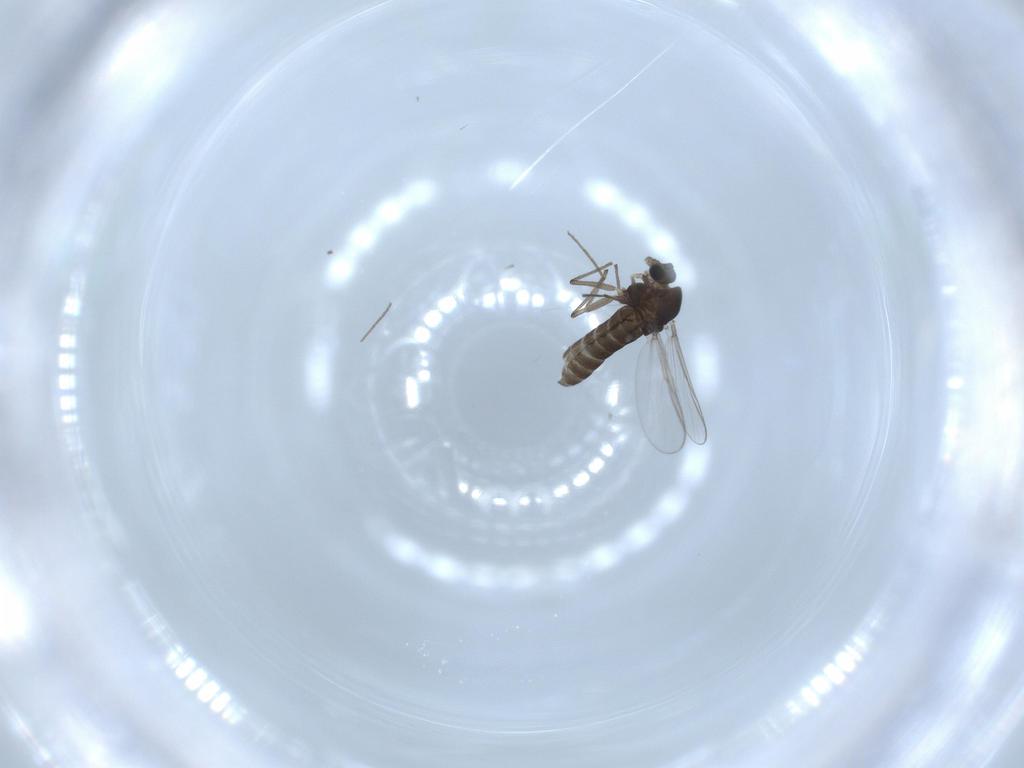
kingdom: Animalia
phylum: Arthropoda
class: Insecta
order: Diptera
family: Chironomidae
